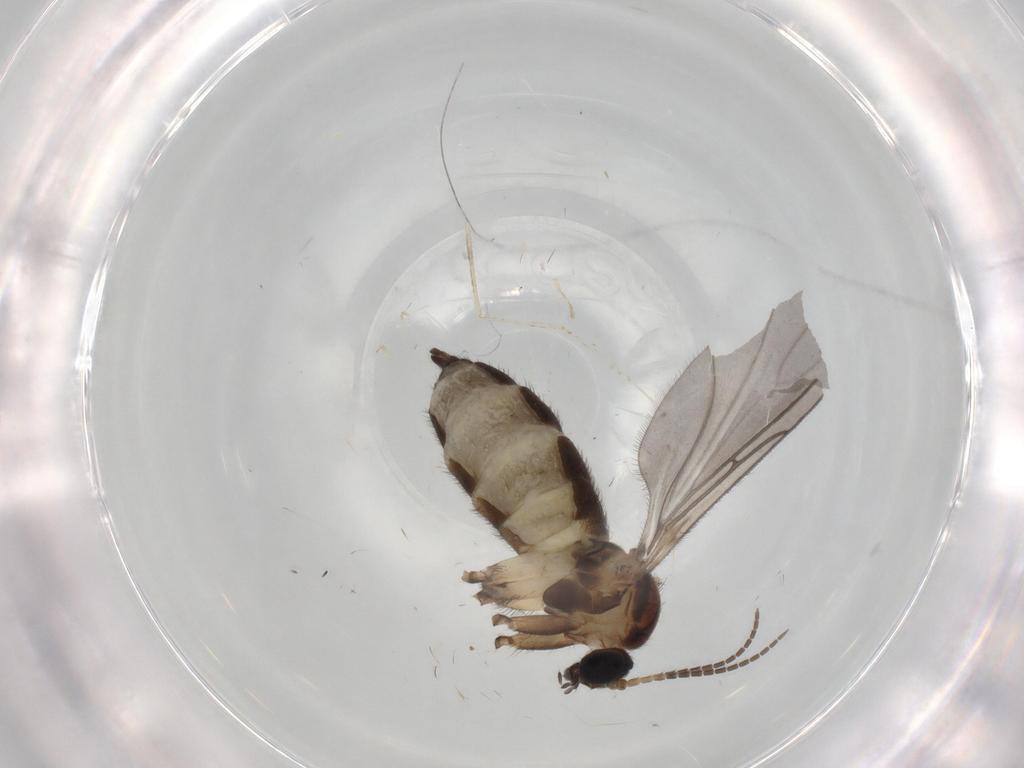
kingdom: Animalia
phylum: Arthropoda
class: Insecta
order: Diptera
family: Sciaridae
